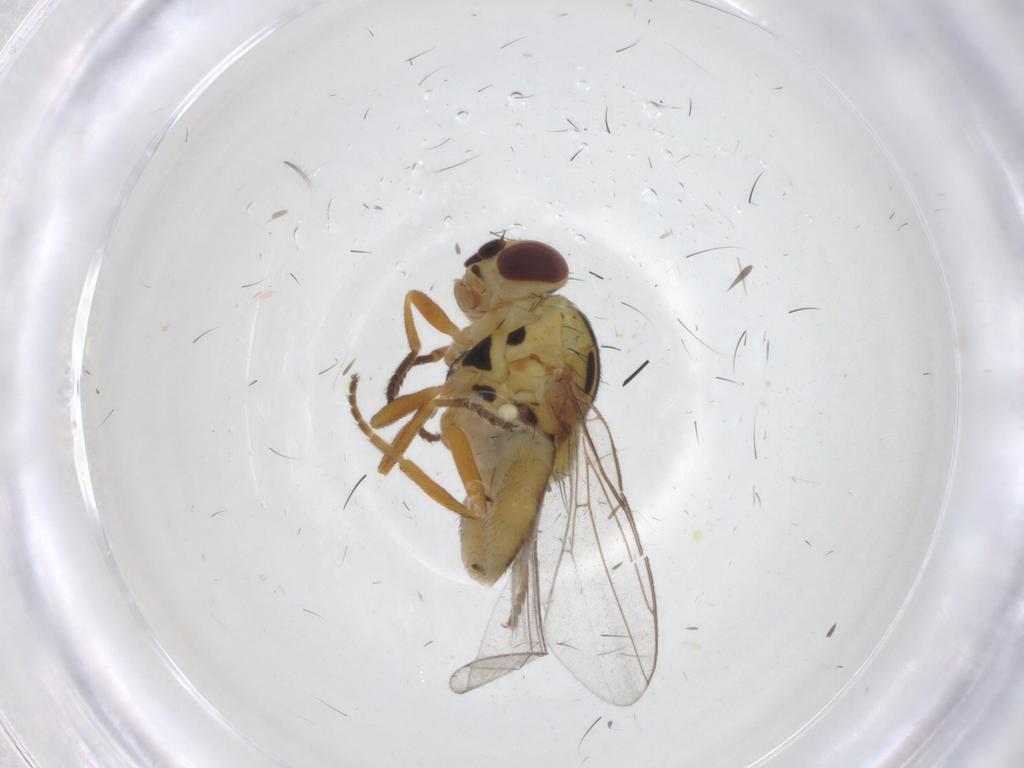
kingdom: Animalia
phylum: Arthropoda
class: Insecta
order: Diptera
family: Chloropidae
